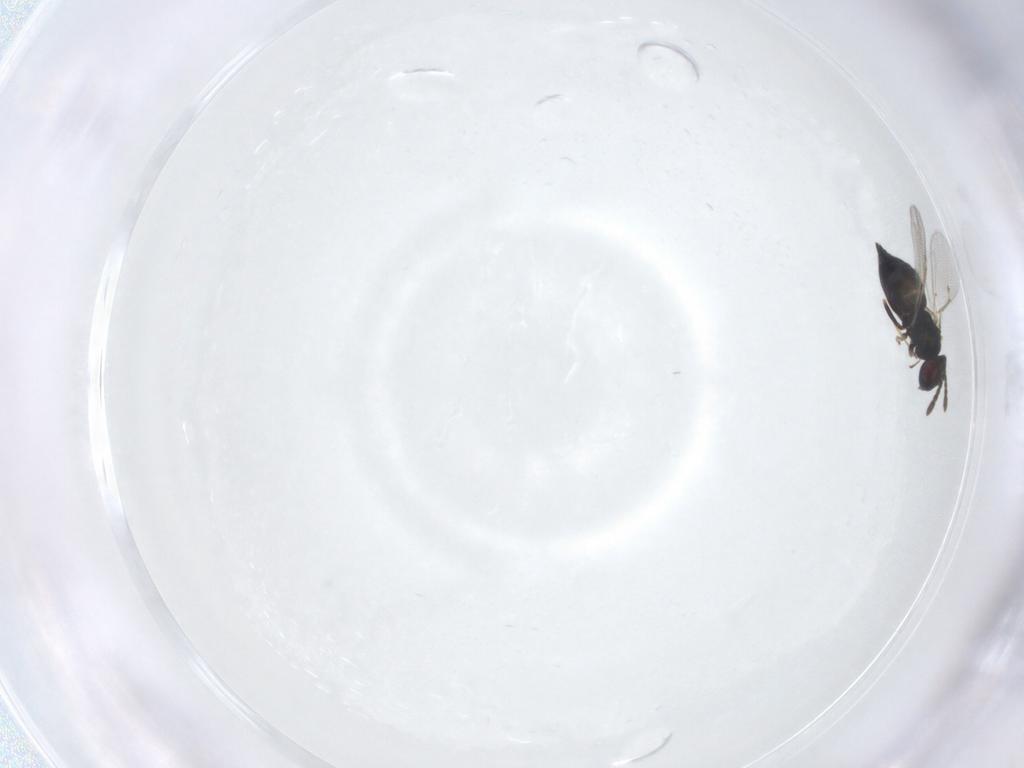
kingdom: Animalia
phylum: Arthropoda
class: Insecta
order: Hymenoptera
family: Eulophidae
